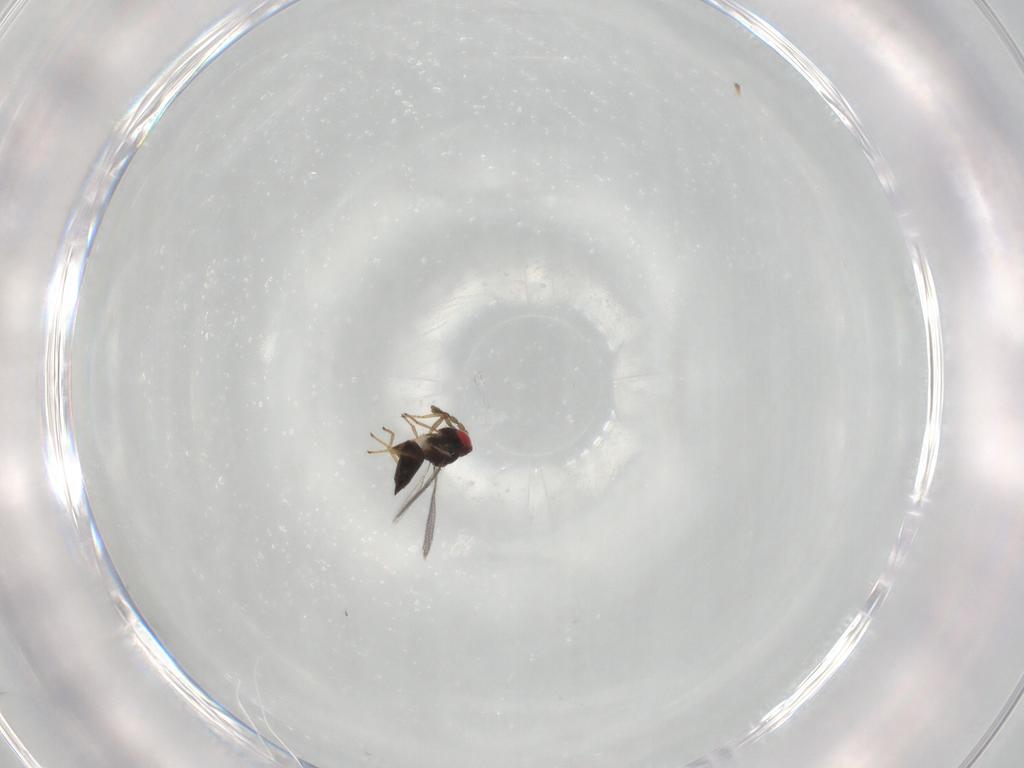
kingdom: Animalia
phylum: Arthropoda
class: Insecta
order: Hymenoptera
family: Eulophidae
